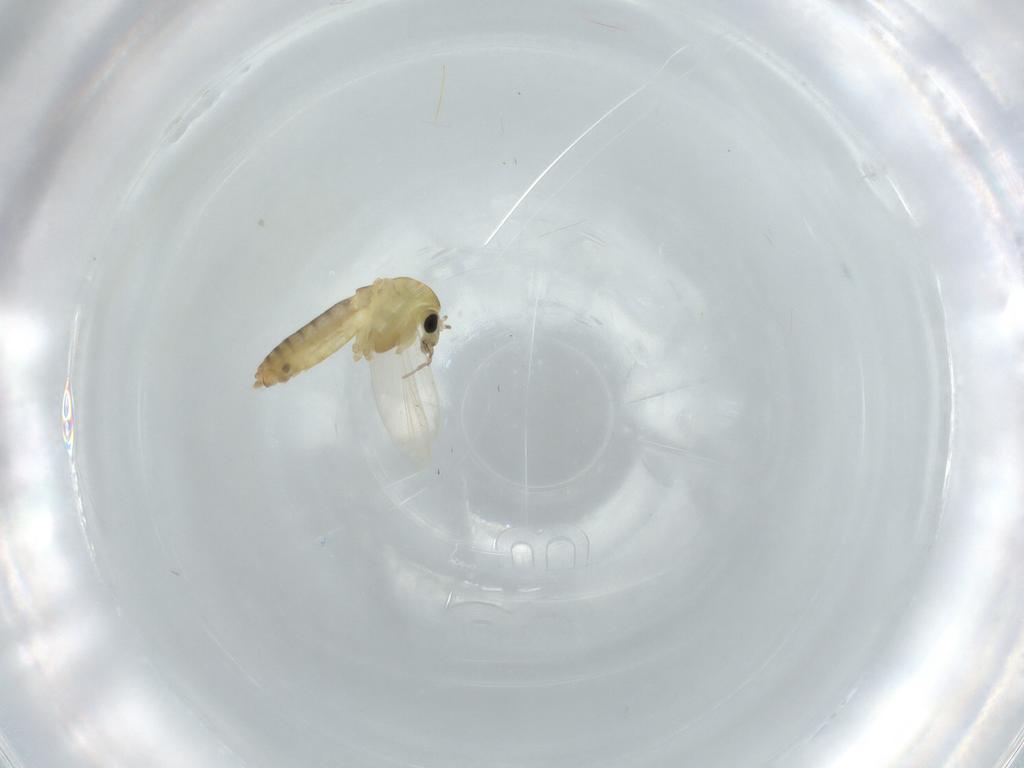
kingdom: Animalia
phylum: Arthropoda
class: Insecta
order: Diptera
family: Chironomidae
